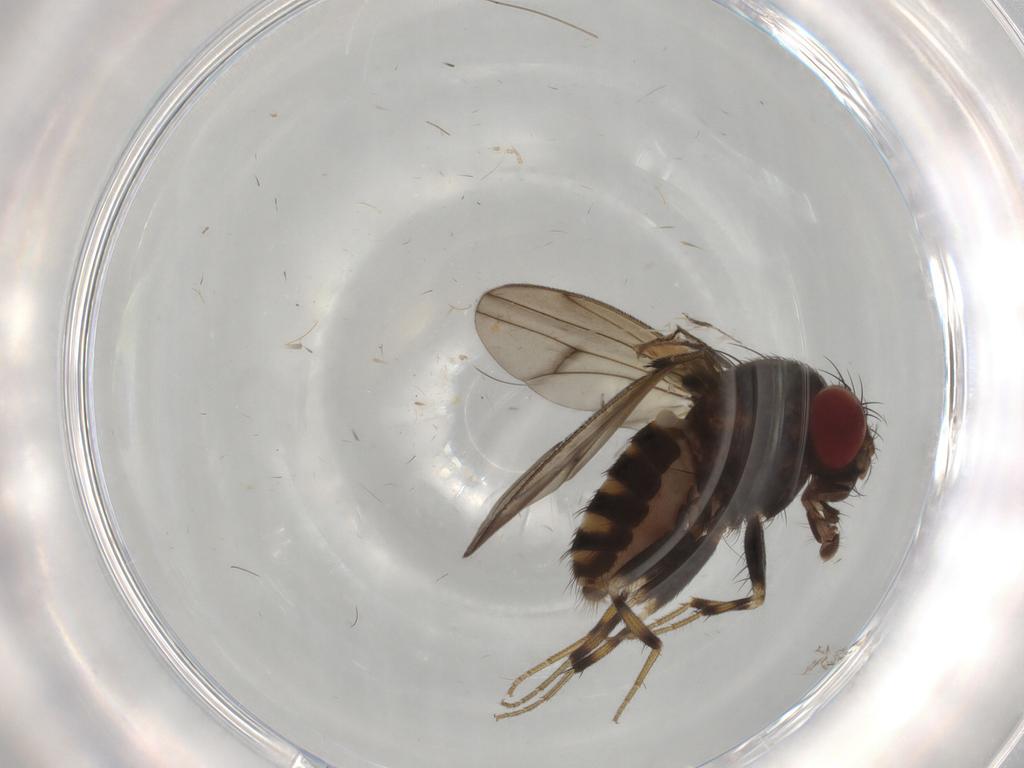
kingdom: Animalia
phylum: Arthropoda
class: Insecta
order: Diptera
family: Drosophilidae
